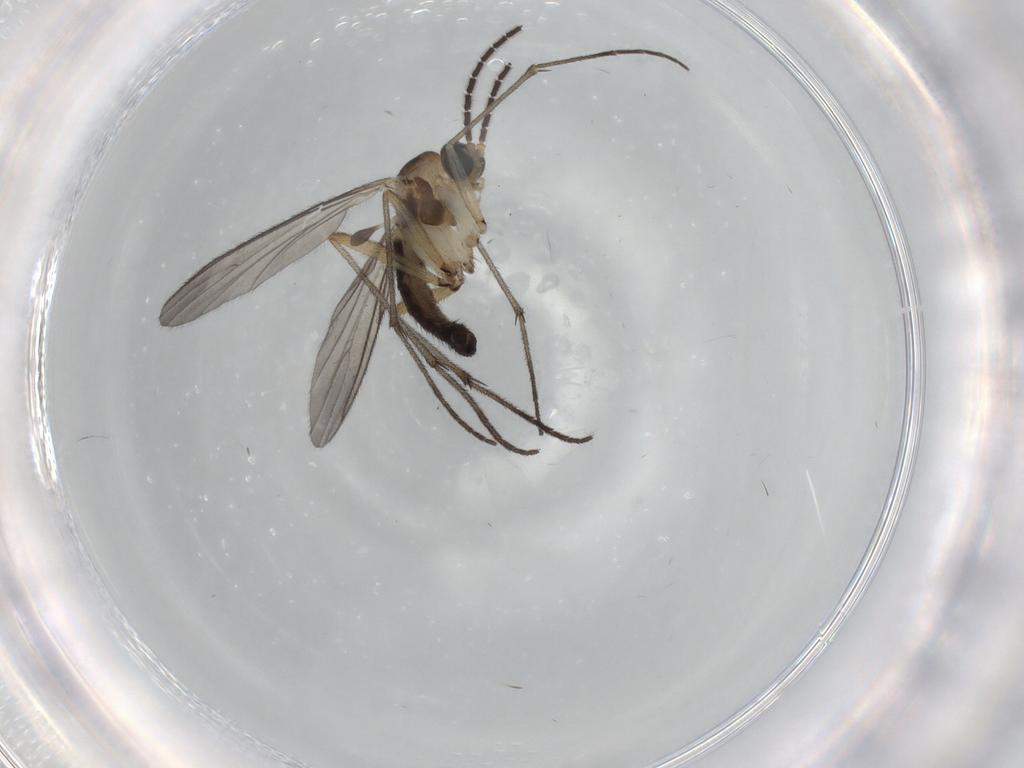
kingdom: Animalia
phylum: Arthropoda
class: Insecta
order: Diptera
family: Sciaridae
